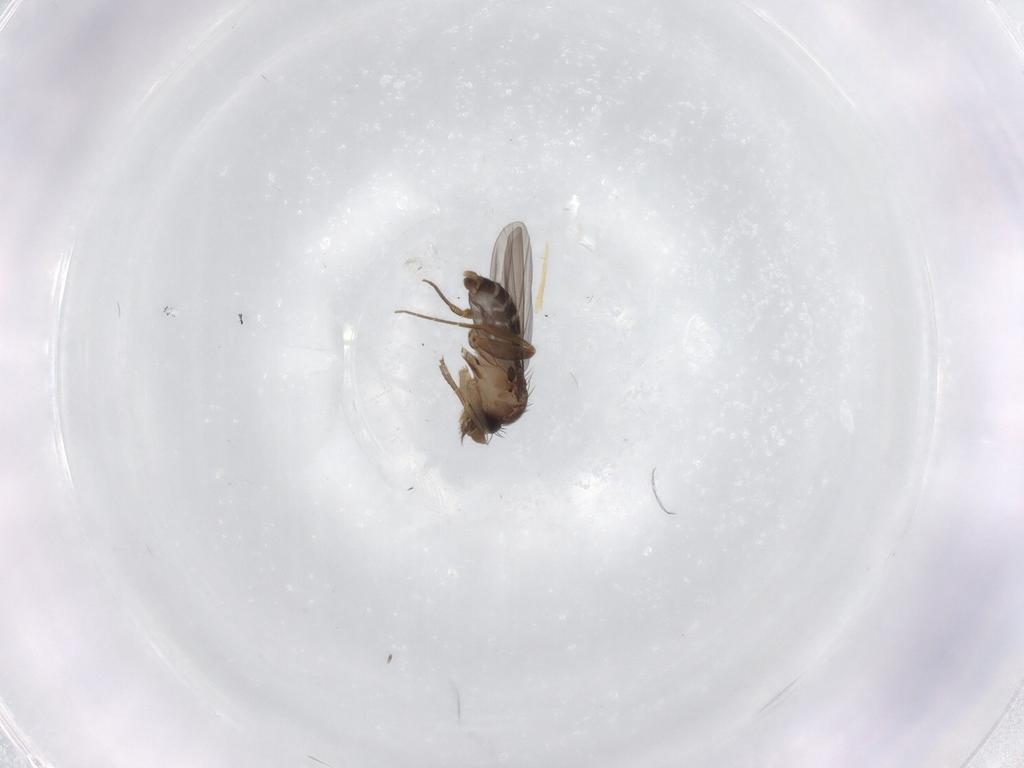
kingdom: Animalia
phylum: Arthropoda
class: Insecta
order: Diptera
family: Phoridae
